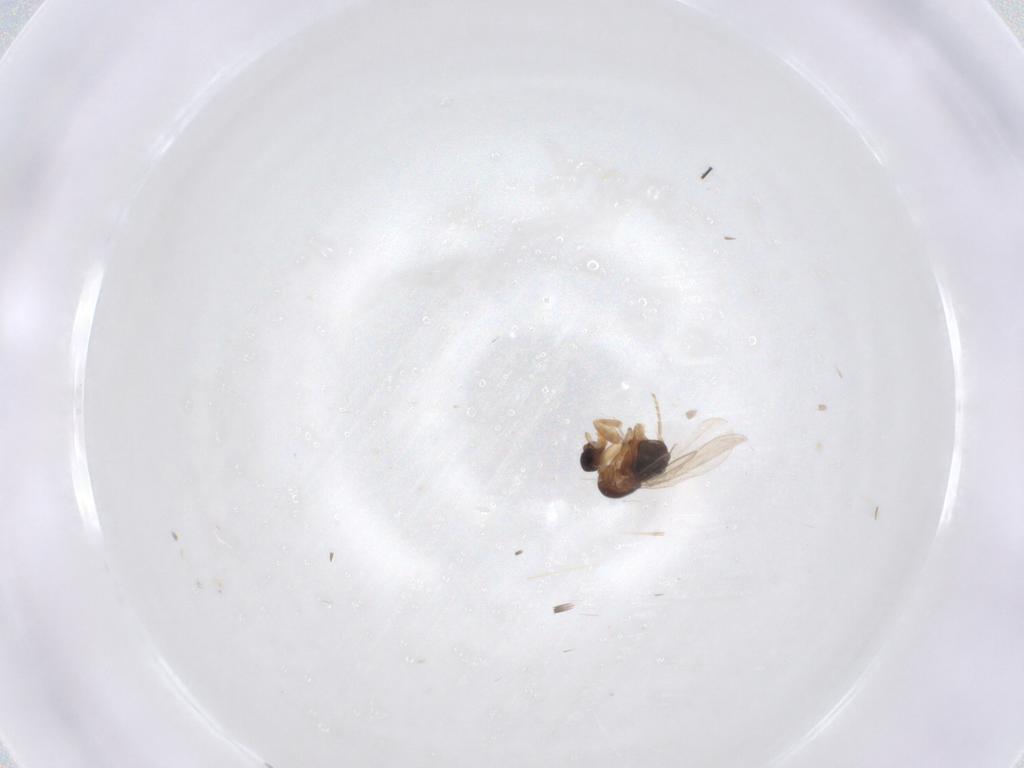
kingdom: Animalia
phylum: Arthropoda
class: Insecta
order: Diptera
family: Phoridae
